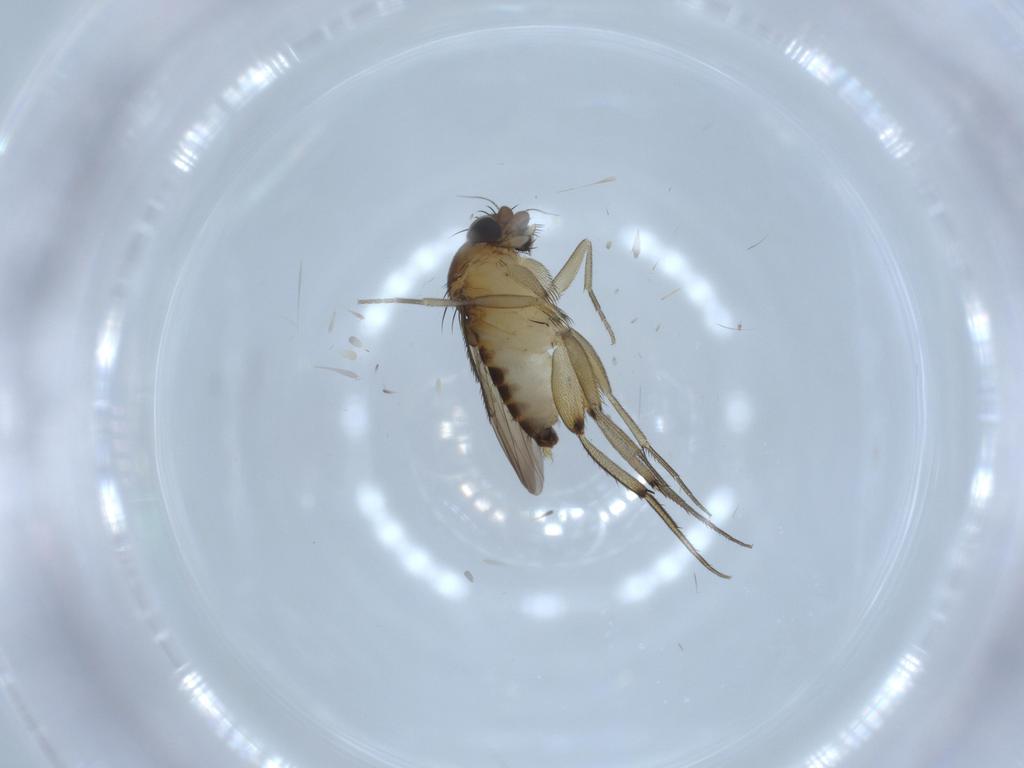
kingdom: Animalia
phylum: Arthropoda
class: Insecta
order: Diptera
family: Phoridae
